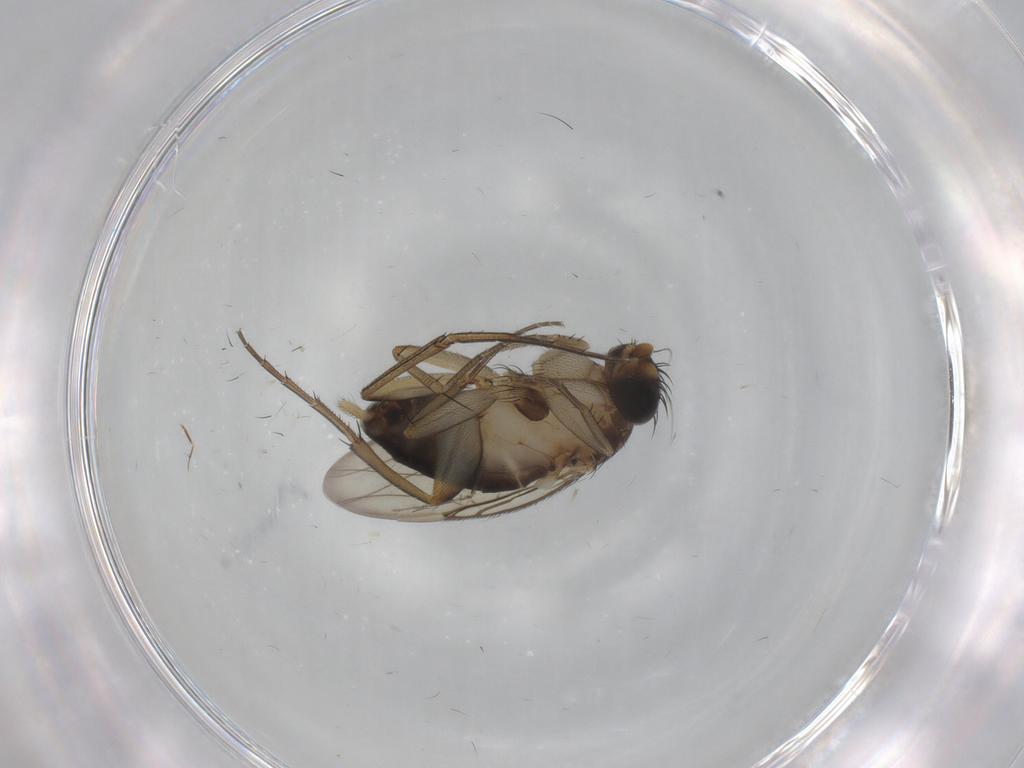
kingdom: Animalia
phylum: Arthropoda
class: Insecta
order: Diptera
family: Phoridae
